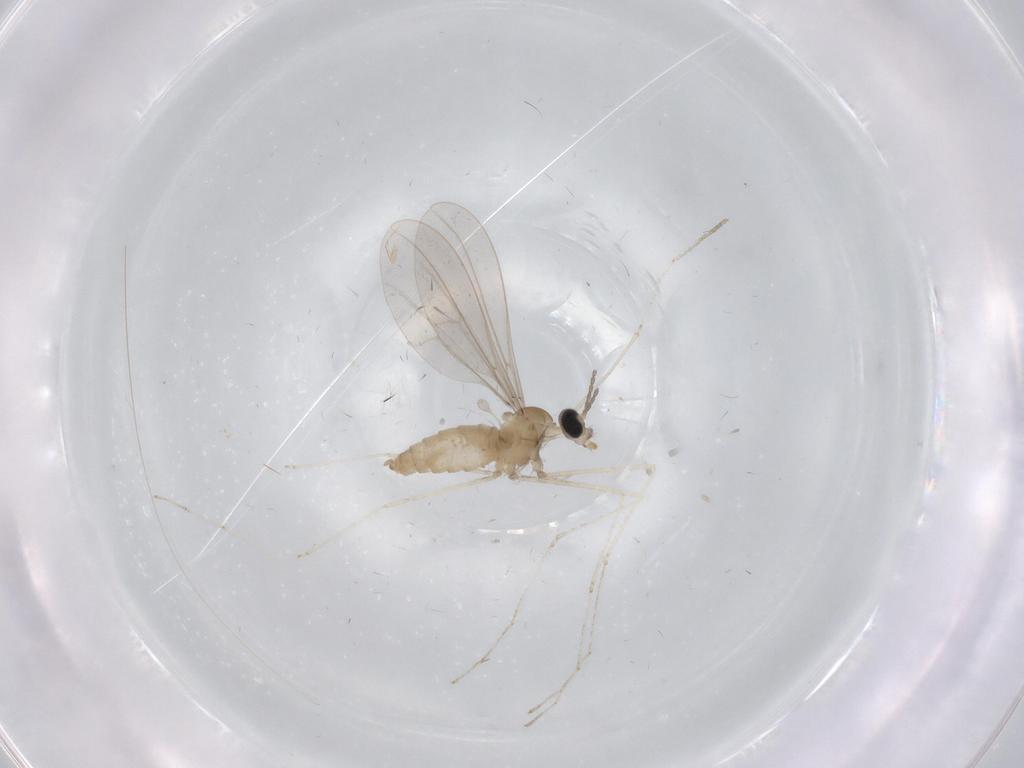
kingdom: Animalia
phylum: Arthropoda
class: Insecta
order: Diptera
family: Cecidomyiidae
